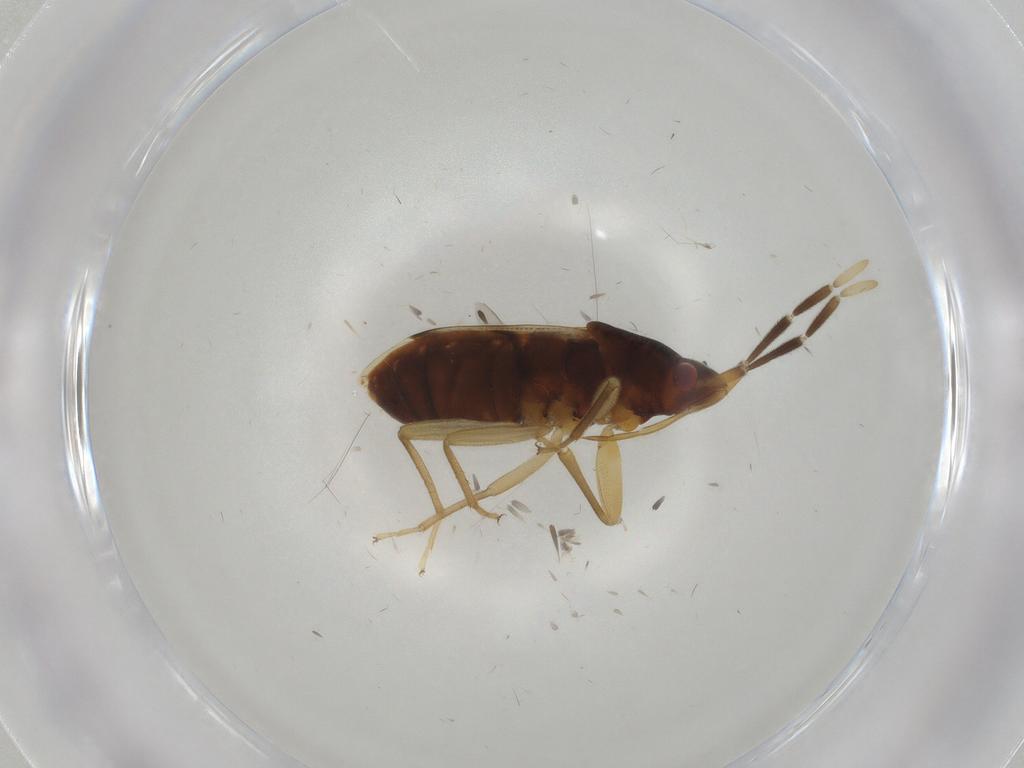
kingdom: Animalia
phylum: Arthropoda
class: Insecta
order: Hemiptera
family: Rhyparochromidae
